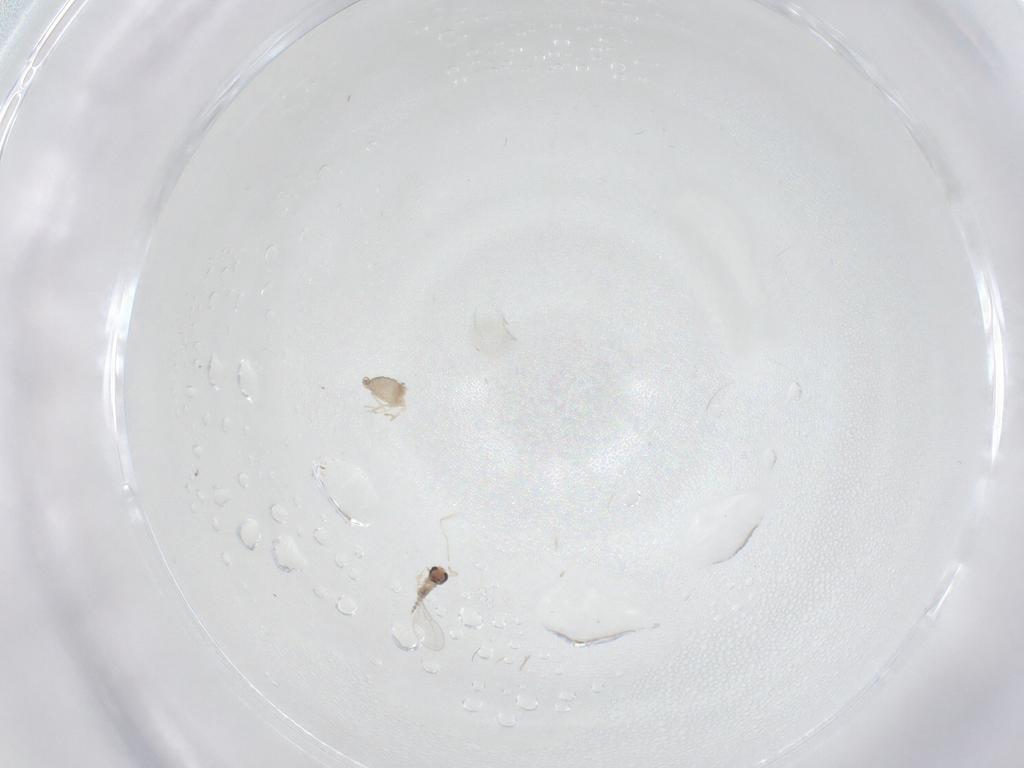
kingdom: Animalia
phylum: Arthropoda
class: Insecta
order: Diptera
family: Cecidomyiidae
